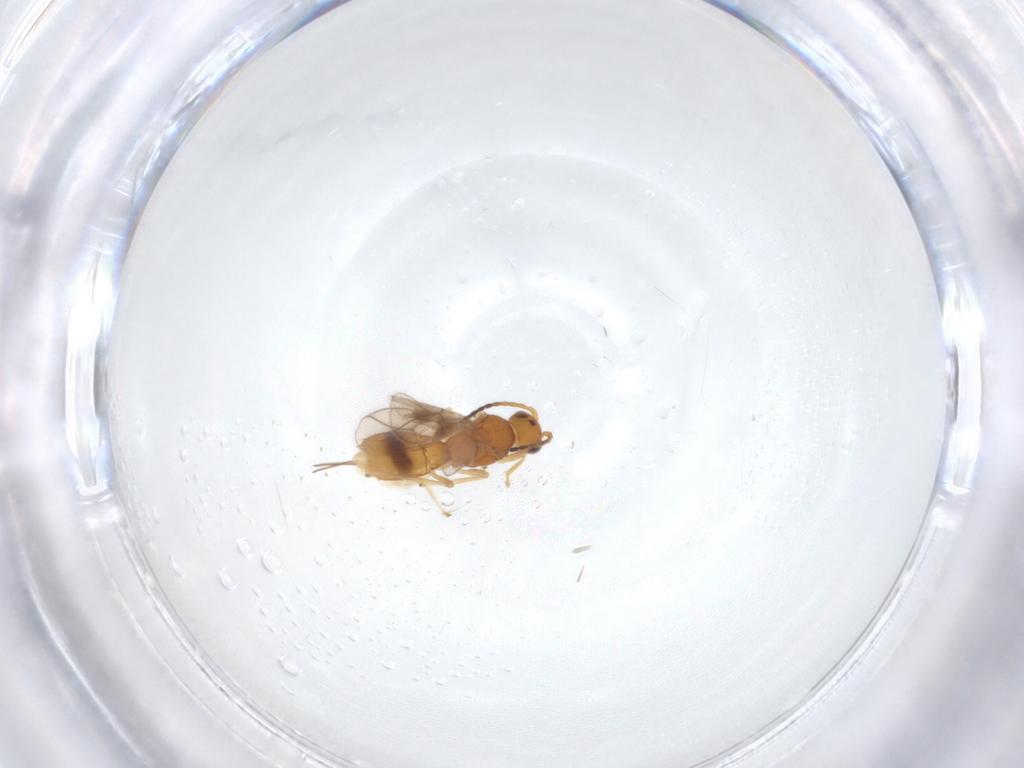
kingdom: Animalia
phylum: Arthropoda
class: Insecta
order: Hymenoptera
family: Braconidae
